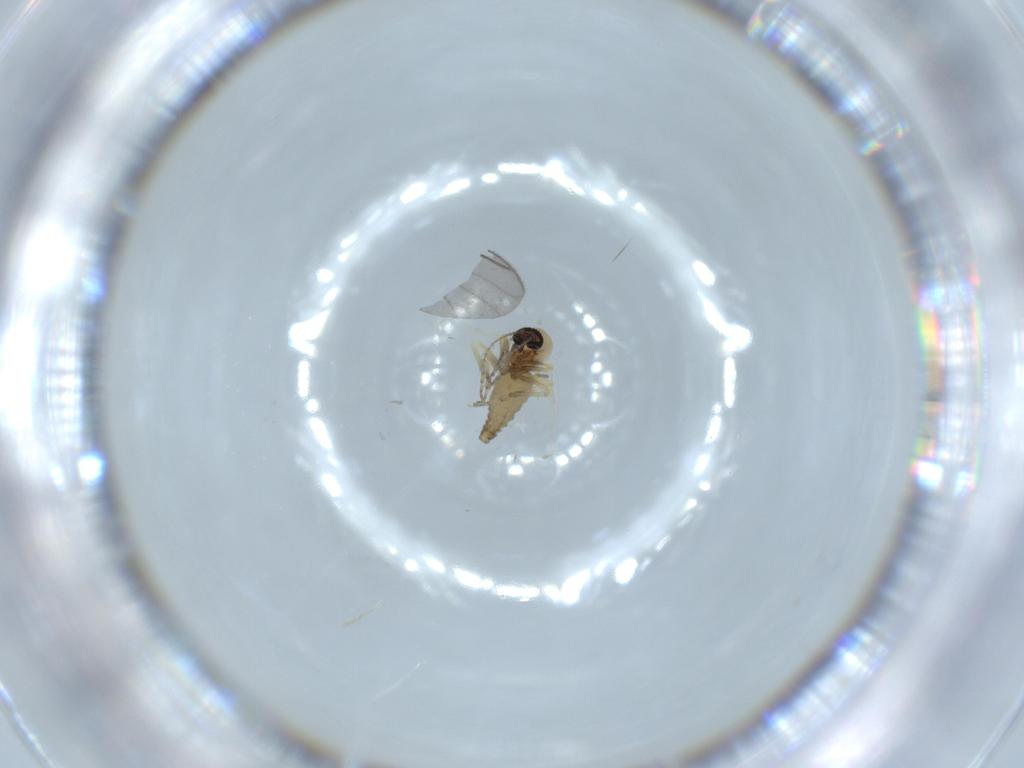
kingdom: Animalia
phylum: Arthropoda
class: Insecta
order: Diptera
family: Ceratopogonidae
